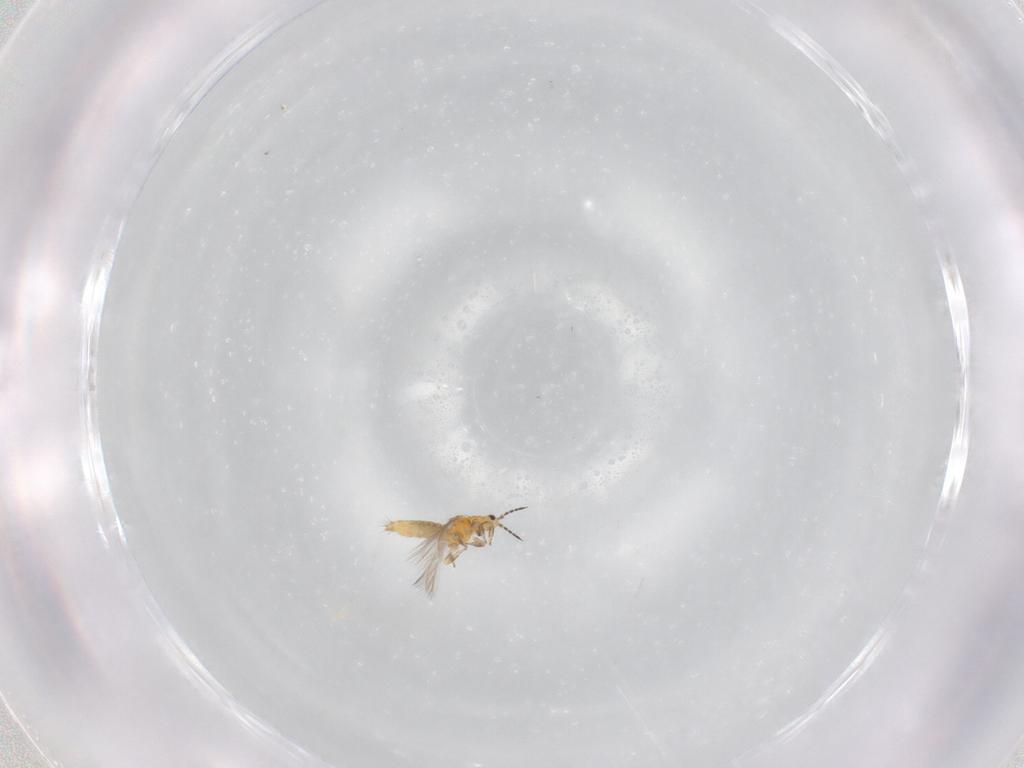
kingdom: Animalia
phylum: Arthropoda
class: Insecta
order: Thysanoptera
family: Thripidae
